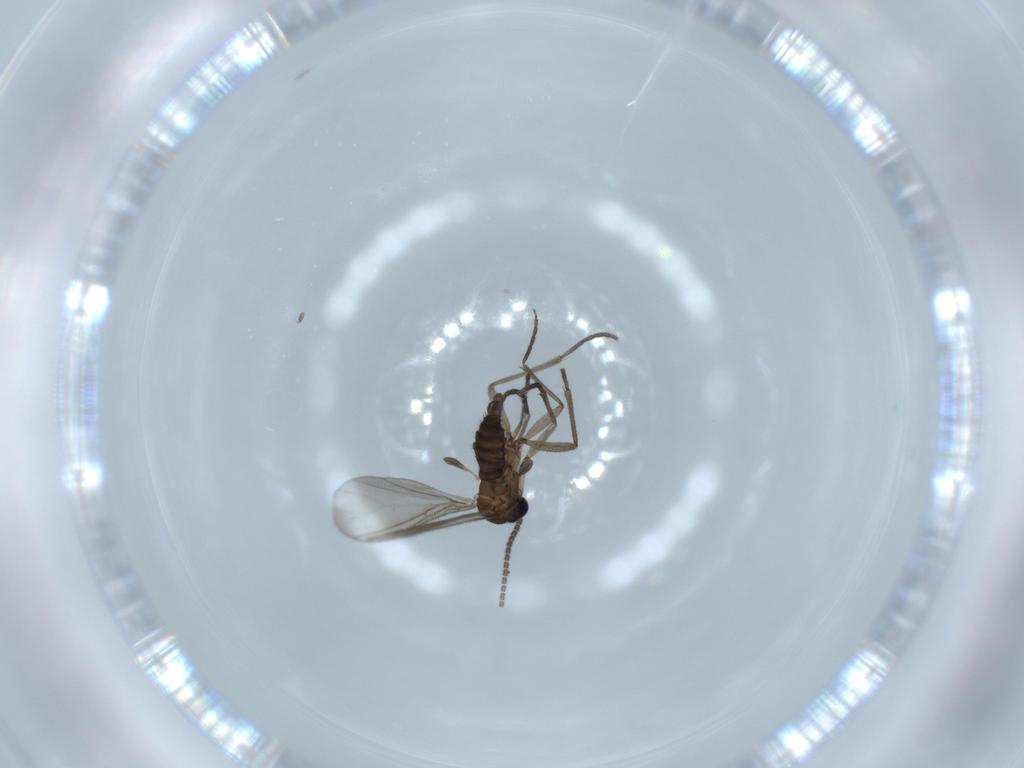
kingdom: Animalia
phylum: Arthropoda
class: Insecta
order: Diptera
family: Sciaridae
